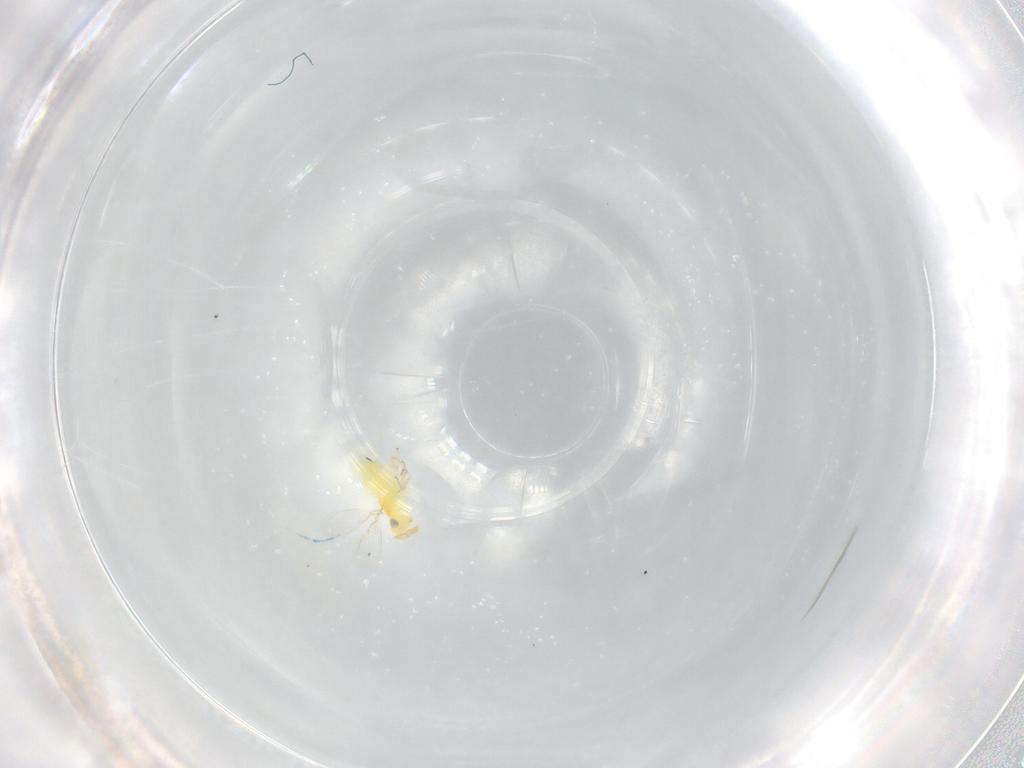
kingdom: Animalia
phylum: Arthropoda
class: Insecta
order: Hymenoptera
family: Aphelinidae
